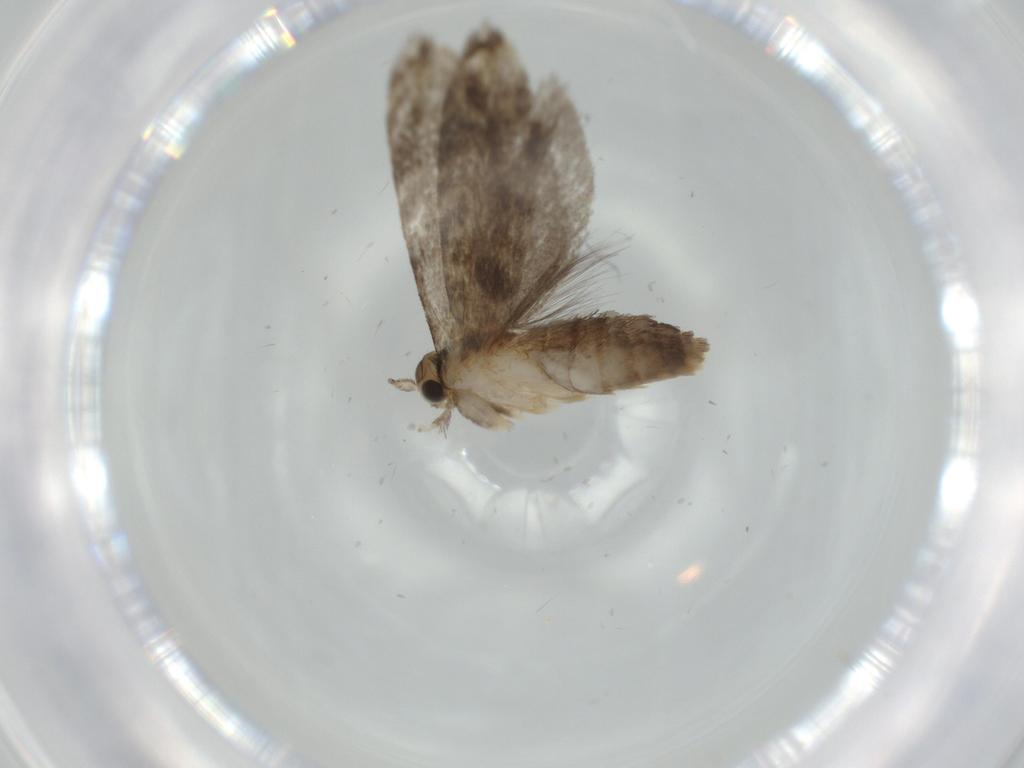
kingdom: Animalia
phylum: Arthropoda
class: Insecta
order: Lepidoptera
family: Tineidae
